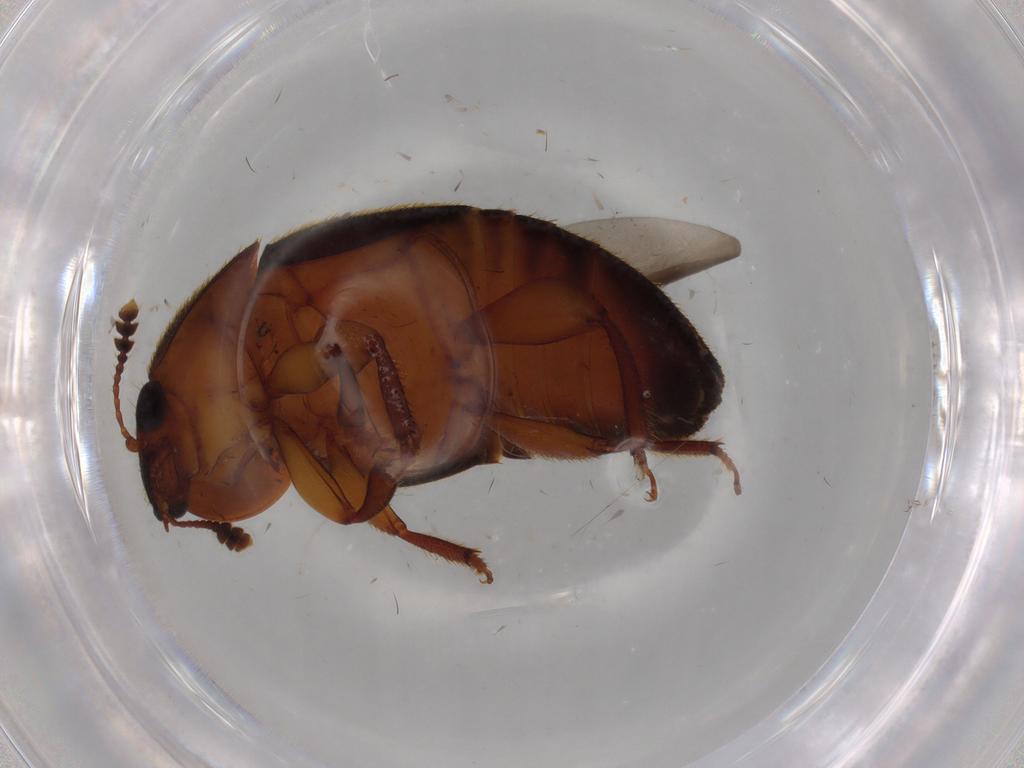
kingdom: Animalia
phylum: Arthropoda
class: Insecta
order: Coleoptera
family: Nitidulidae
